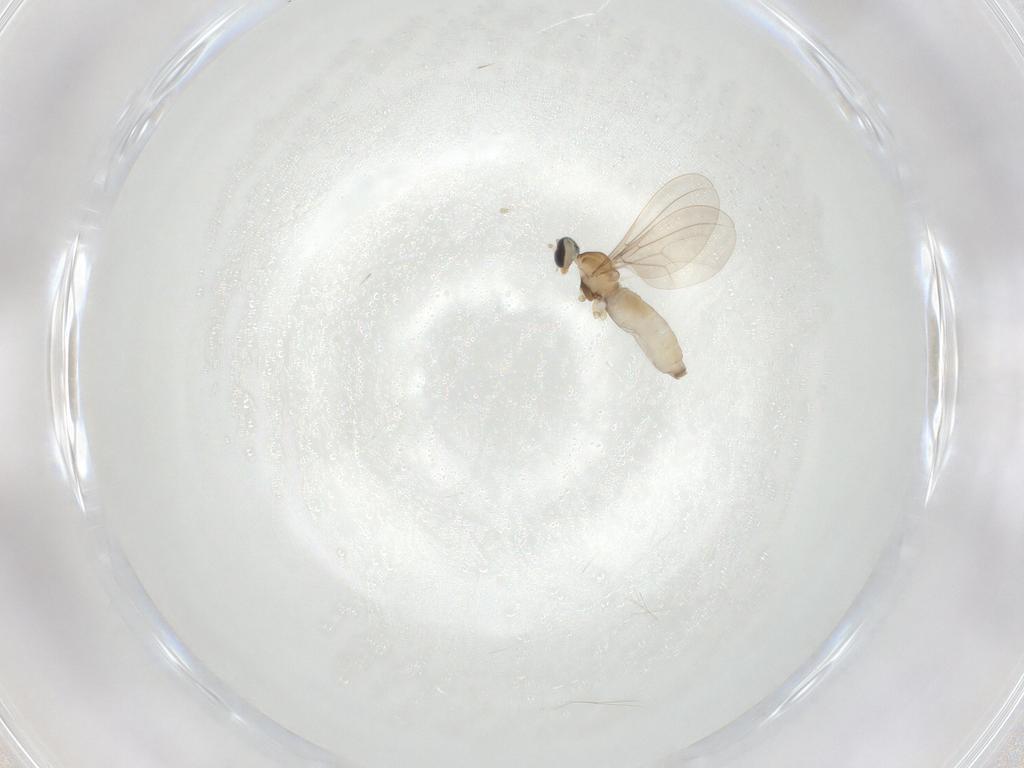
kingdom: Animalia
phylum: Arthropoda
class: Insecta
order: Diptera
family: Cecidomyiidae
